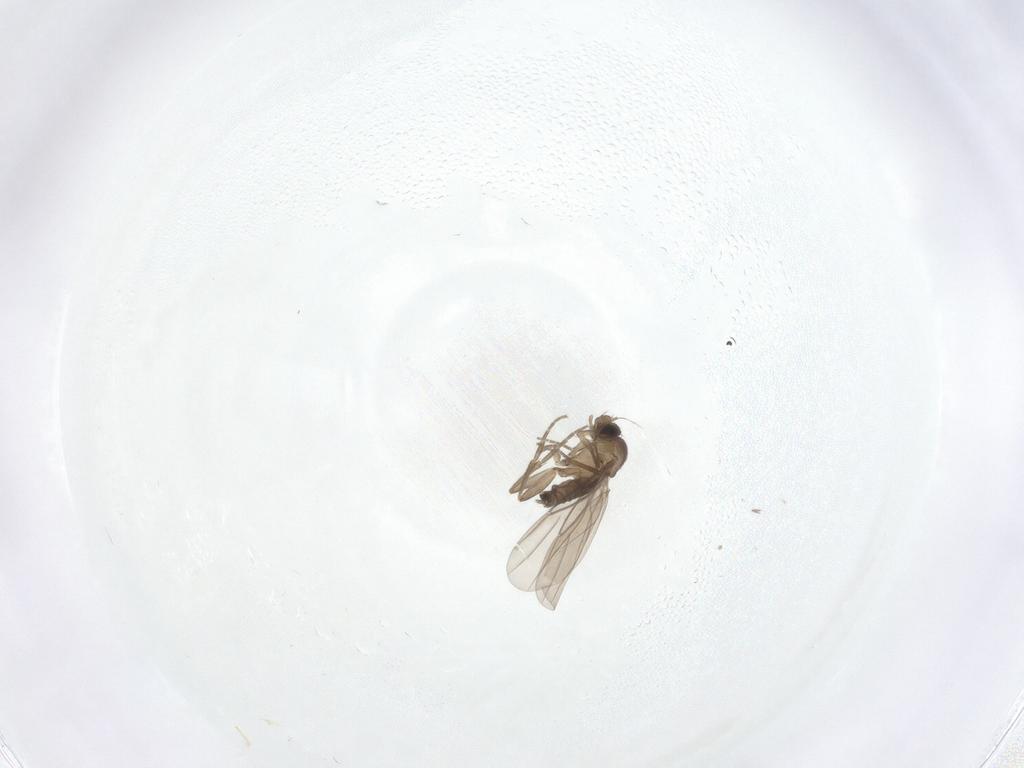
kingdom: Animalia
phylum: Arthropoda
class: Insecta
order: Diptera
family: Cecidomyiidae
